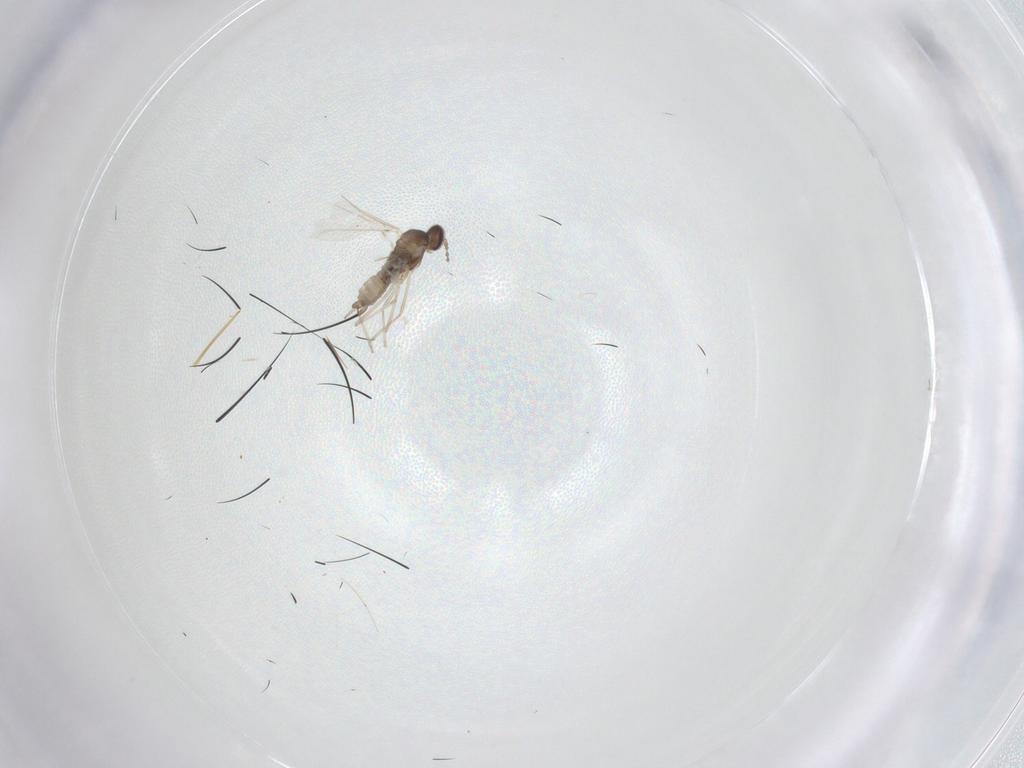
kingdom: Animalia
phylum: Arthropoda
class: Insecta
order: Diptera
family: Cecidomyiidae
